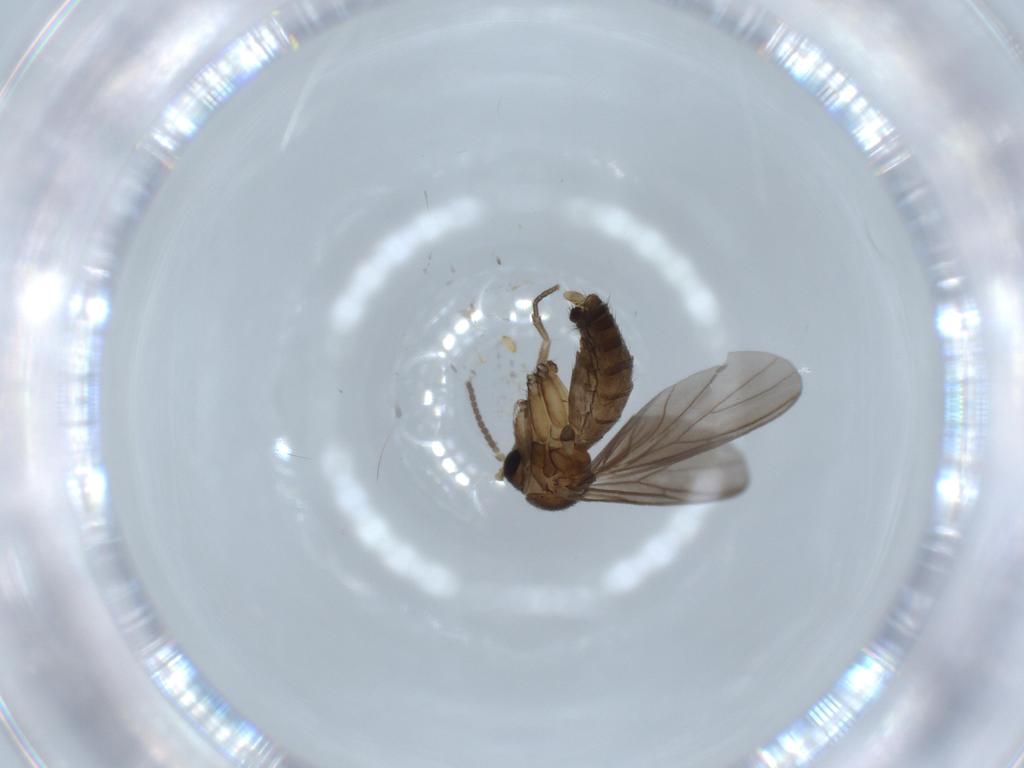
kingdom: Animalia
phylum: Arthropoda
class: Insecta
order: Diptera
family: Mycetophilidae
